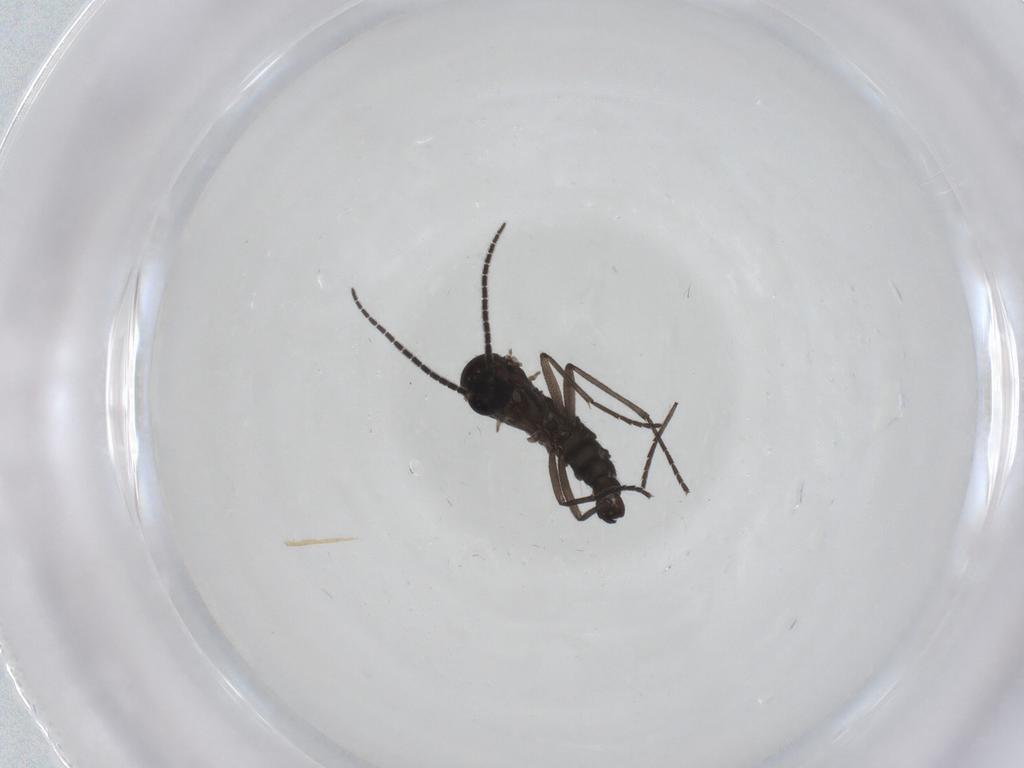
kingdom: Animalia
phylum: Arthropoda
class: Insecta
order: Diptera
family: Sciaridae
